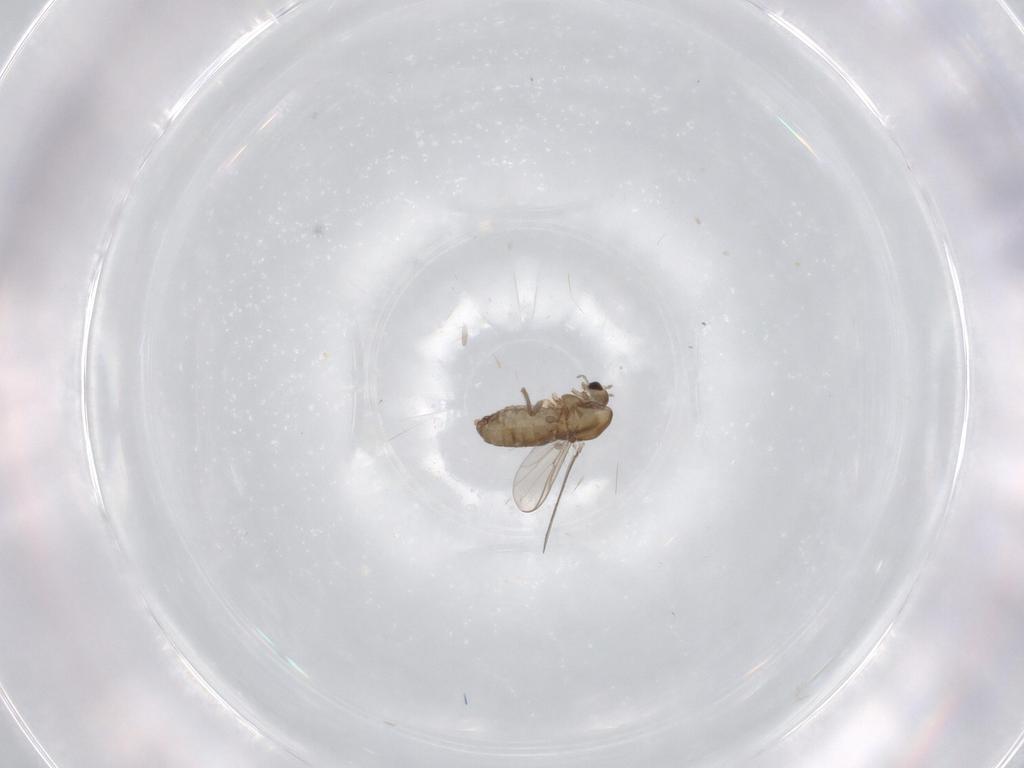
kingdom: Animalia
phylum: Arthropoda
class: Insecta
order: Diptera
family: Chironomidae
